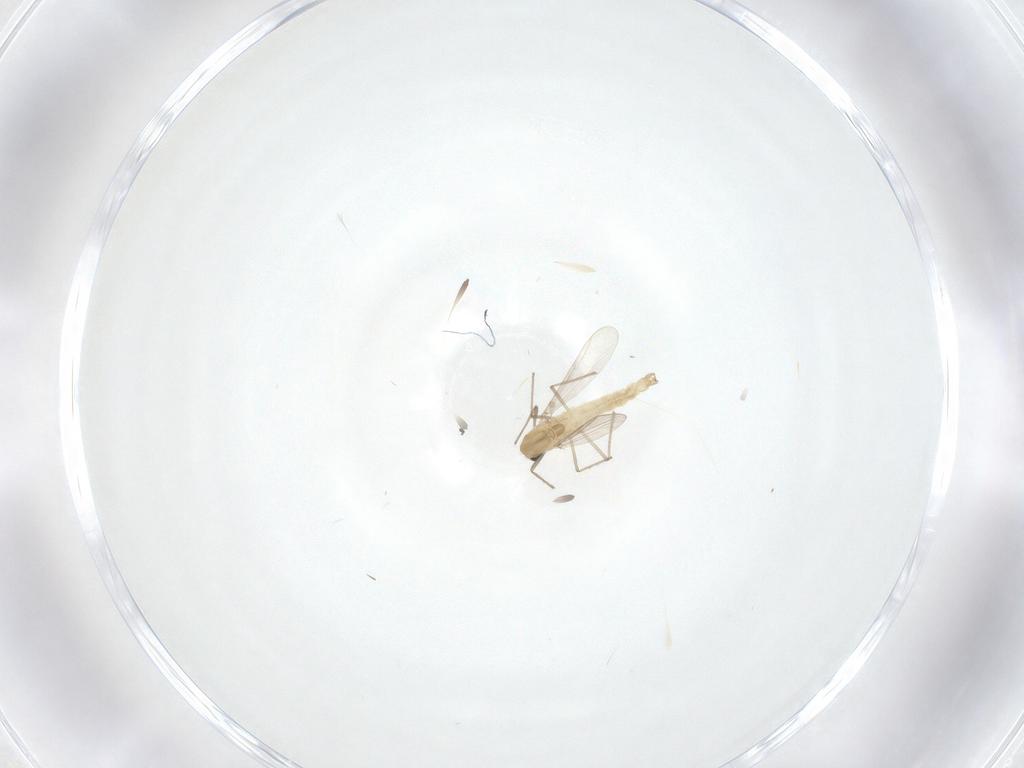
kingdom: Animalia
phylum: Arthropoda
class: Insecta
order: Diptera
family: Chironomidae
